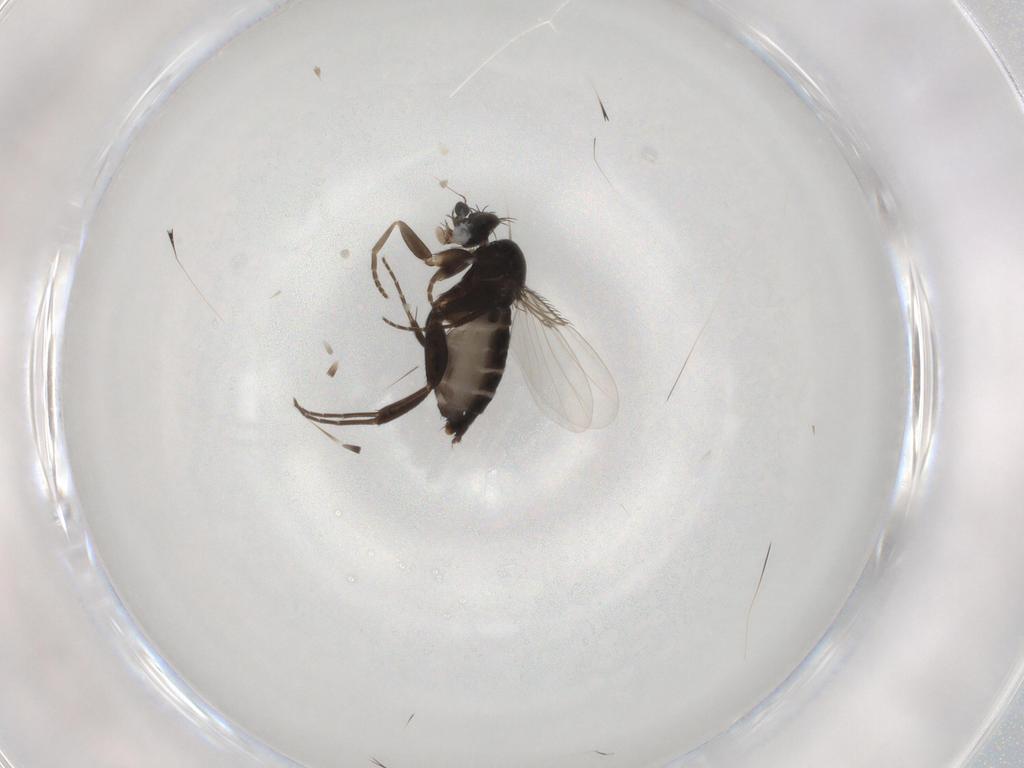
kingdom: Animalia
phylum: Arthropoda
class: Insecta
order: Diptera
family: Phoridae
